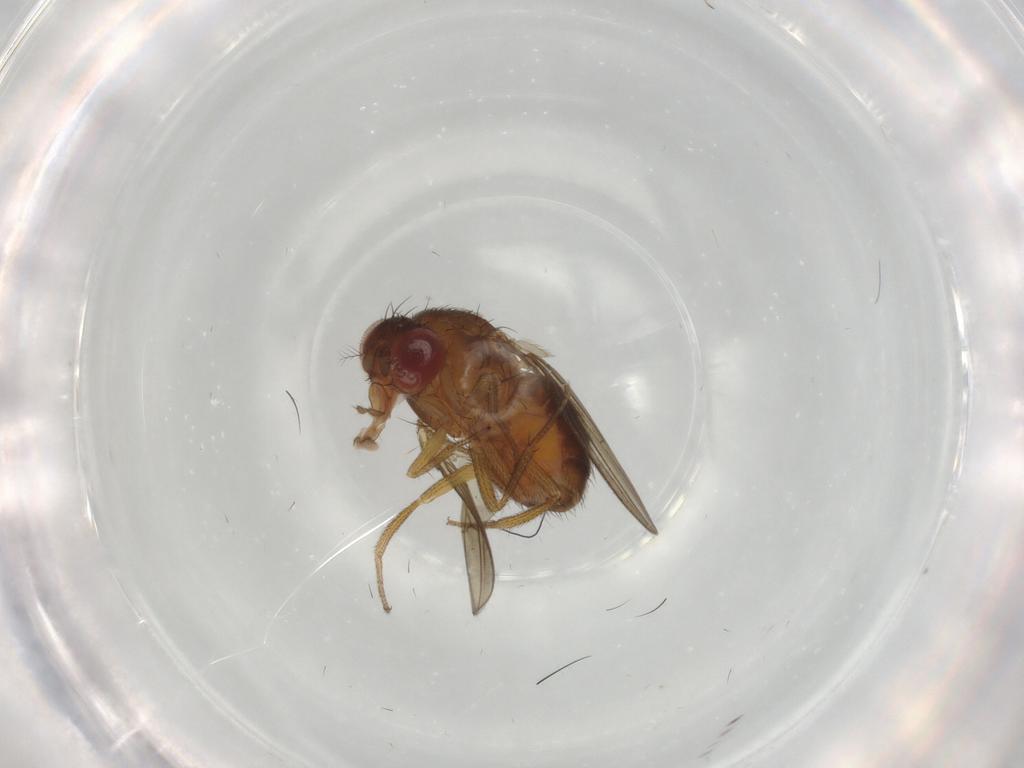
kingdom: Animalia
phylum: Arthropoda
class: Insecta
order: Diptera
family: Drosophilidae
